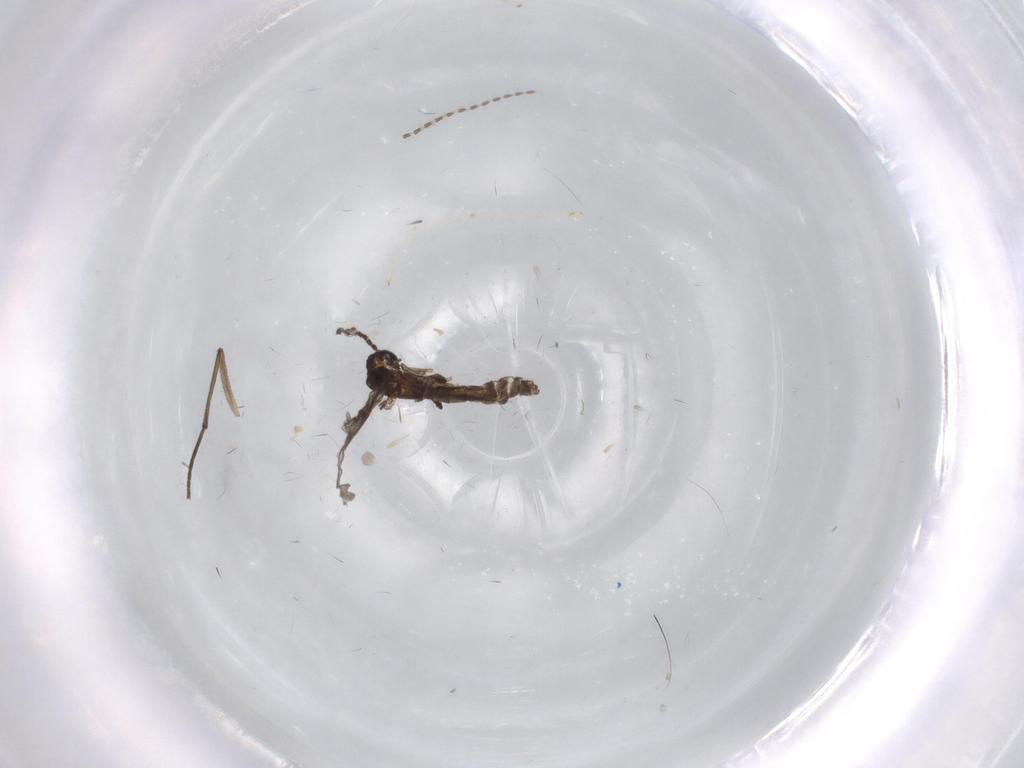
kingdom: Animalia
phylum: Arthropoda
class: Insecta
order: Diptera
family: Cecidomyiidae
